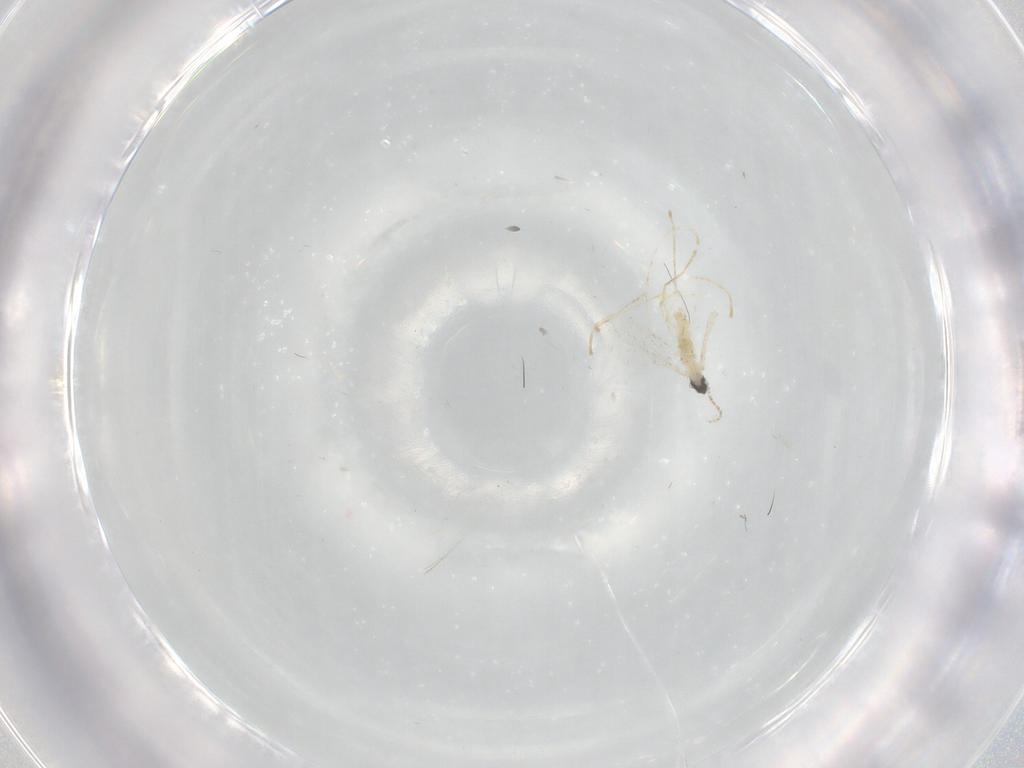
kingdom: Animalia
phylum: Arthropoda
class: Insecta
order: Diptera
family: Cecidomyiidae
